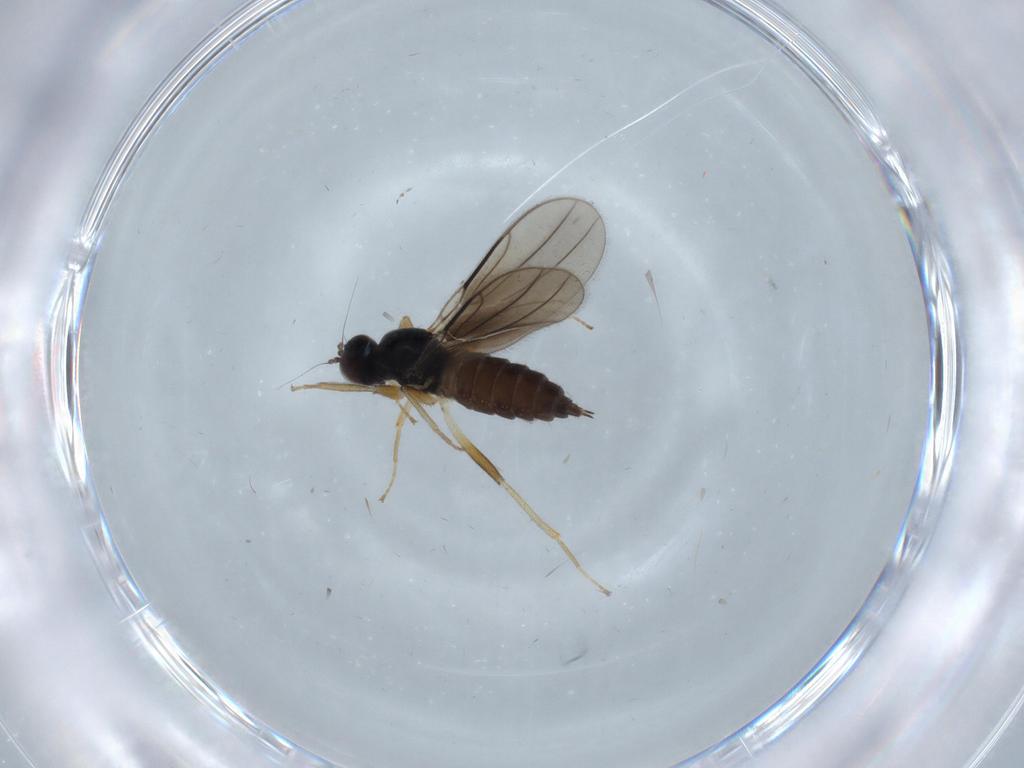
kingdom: Animalia
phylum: Arthropoda
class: Insecta
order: Diptera
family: Hybotidae
